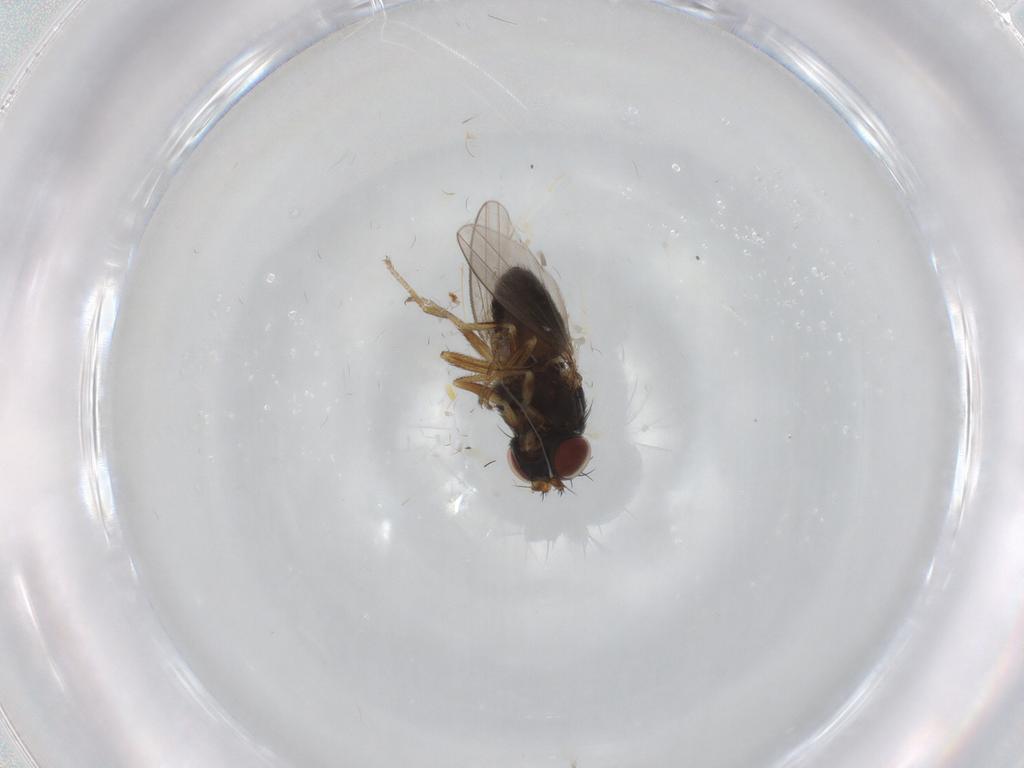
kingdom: Animalia
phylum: Arthropoda
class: Insecta
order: Diptera
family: Ephydridae
